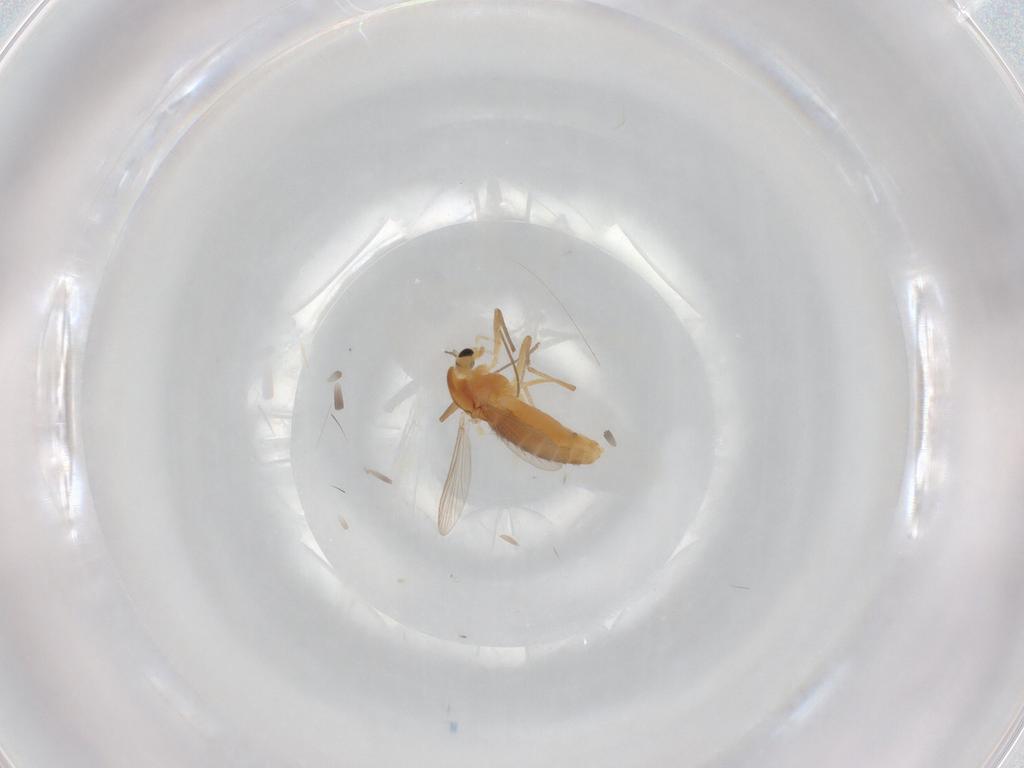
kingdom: Animalia
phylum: Arthropoda
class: Insecta
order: Diptera
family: Chironomidae
